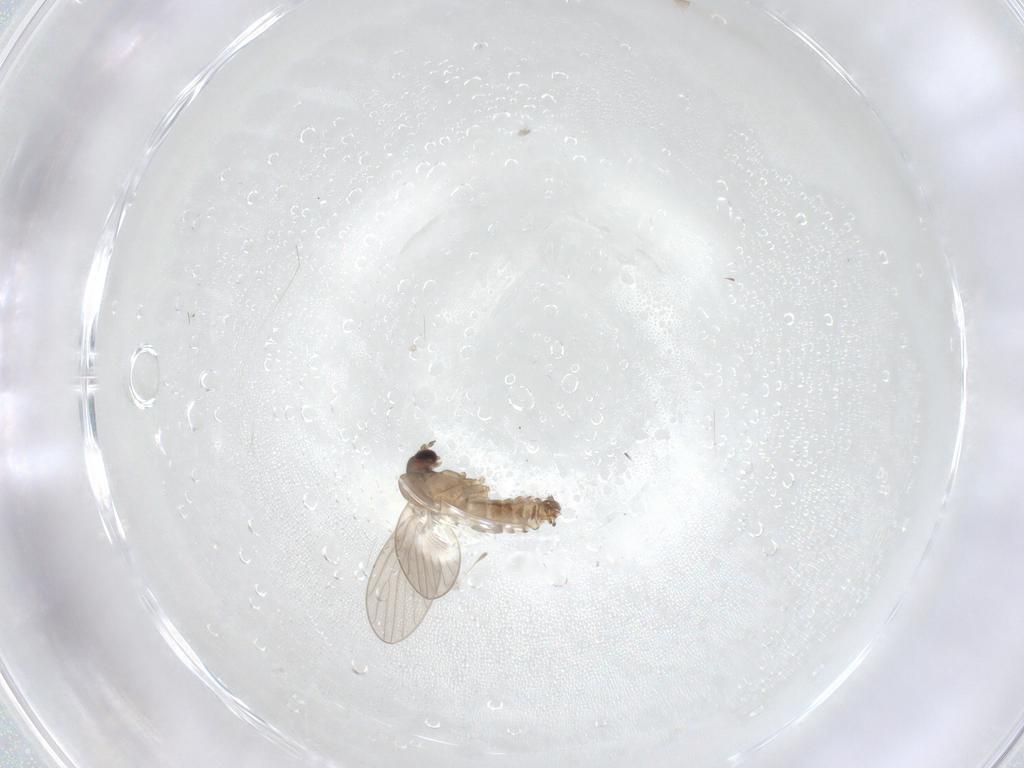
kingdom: Animalia
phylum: Arthropoda
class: Insecta
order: Diptera
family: Psychodidae
